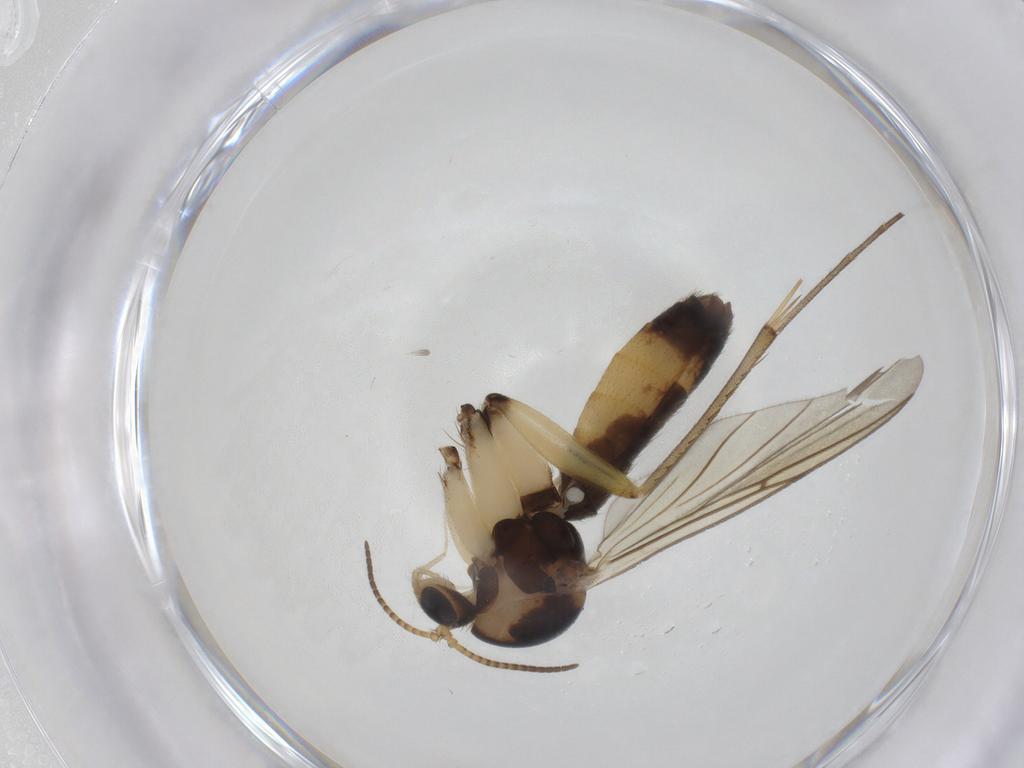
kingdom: Animalia
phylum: Arthropoda
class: Insecta
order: Diptera
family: Mycetophilidae
